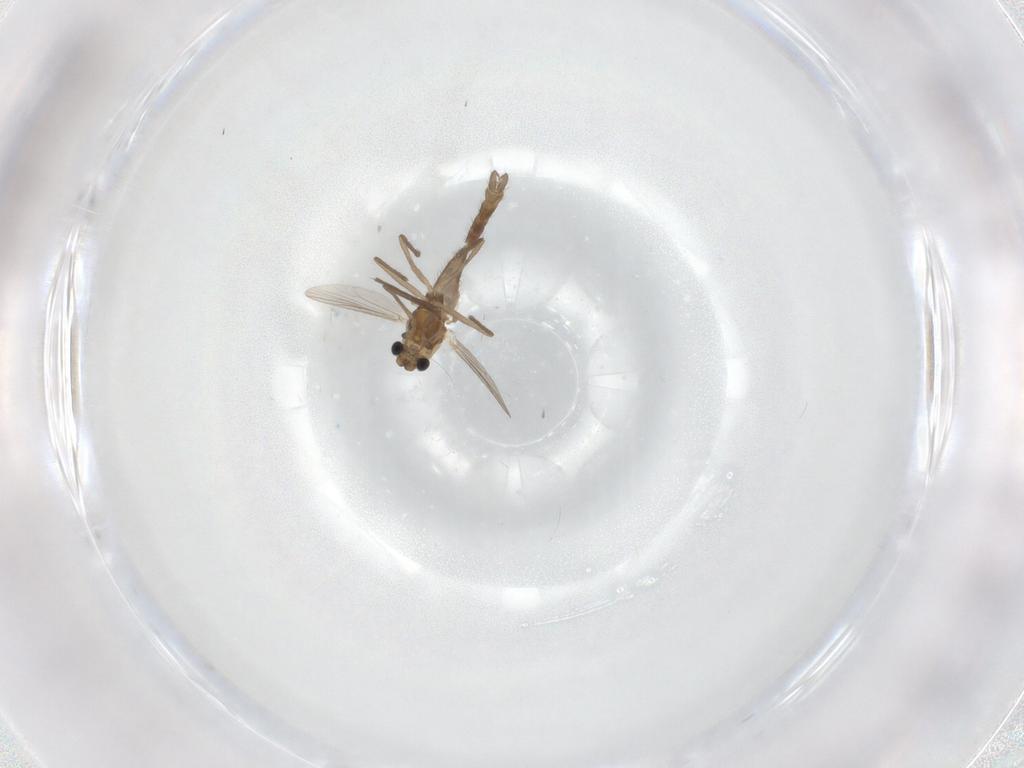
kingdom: Animalia
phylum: Arthropoda
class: Insecta
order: Diptera
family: Chironomidae
